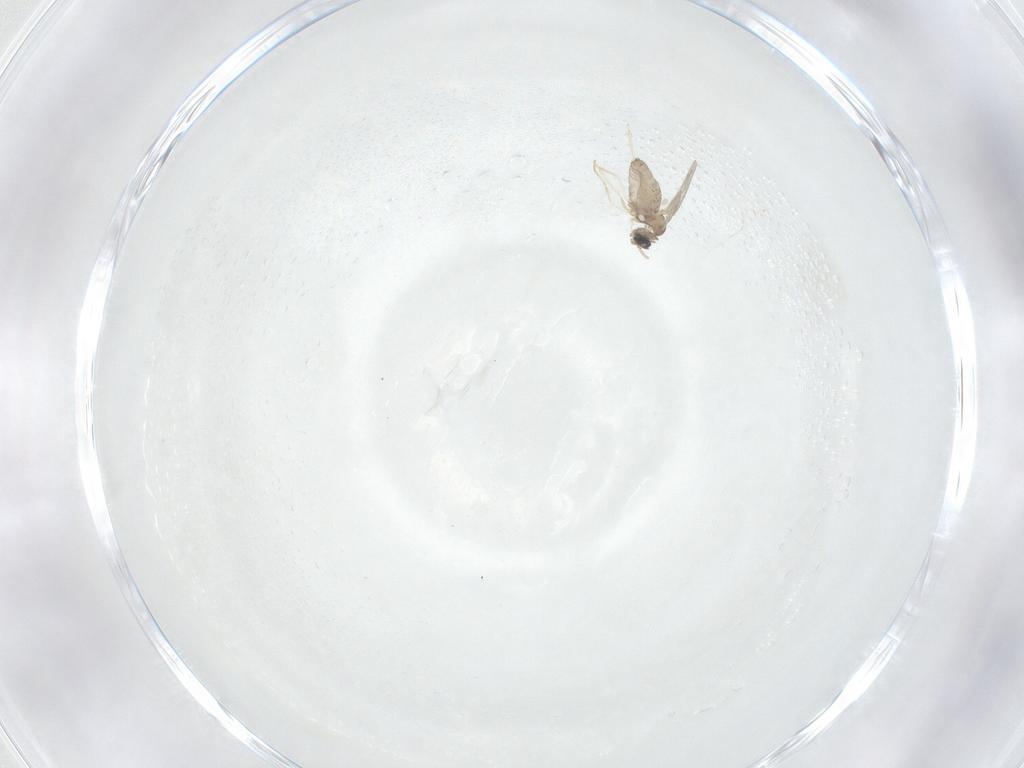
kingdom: Animalia
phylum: Arthropoda
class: Insecta
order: Diptera
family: Cecidomyiidae
